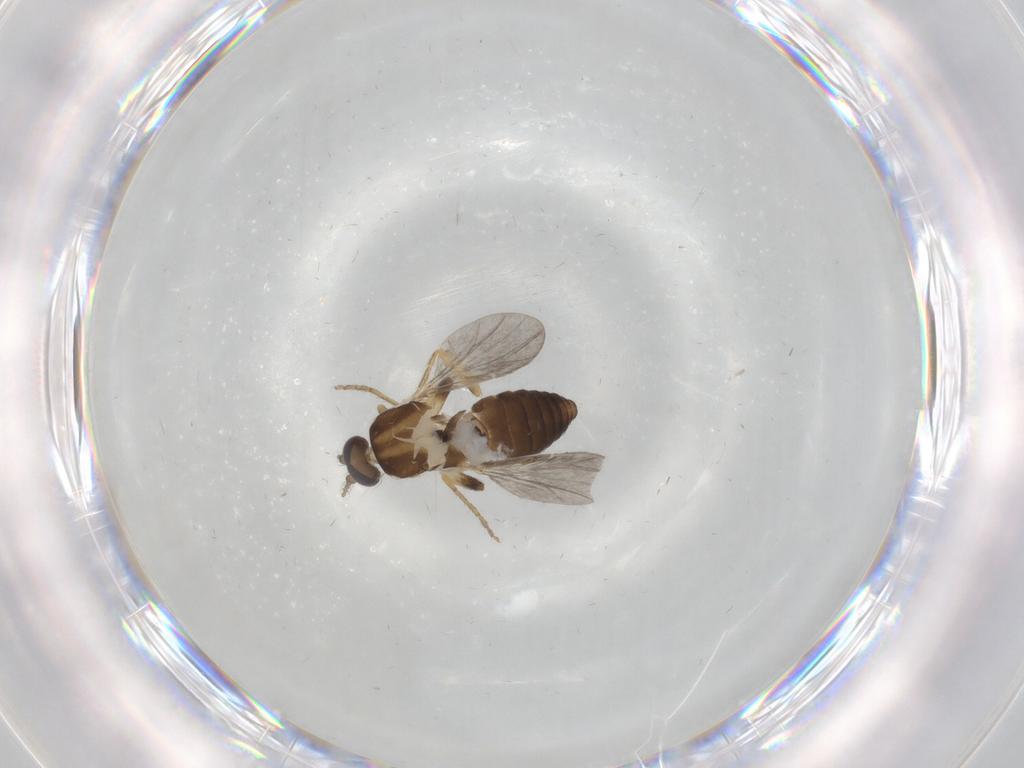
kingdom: Animalia
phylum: Arthropoda
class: Insecta
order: Diptera
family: Ceratopogonidae
